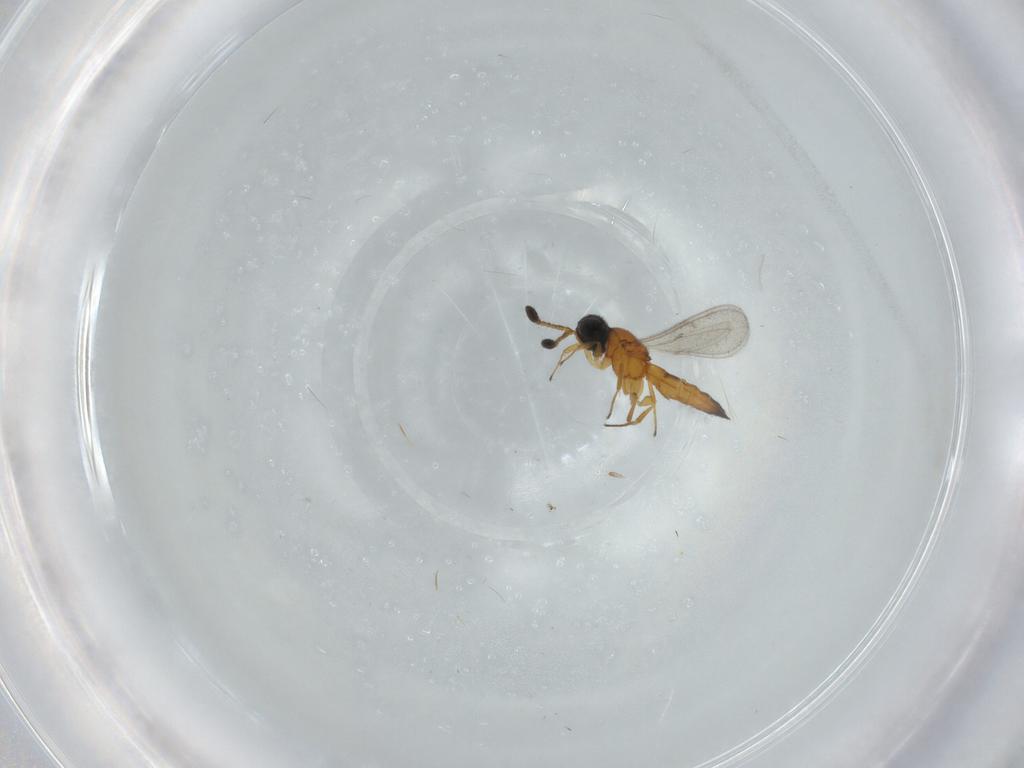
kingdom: Animalia
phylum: Arthropoda
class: Insecta
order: Hymenoptera
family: Scelionidae
